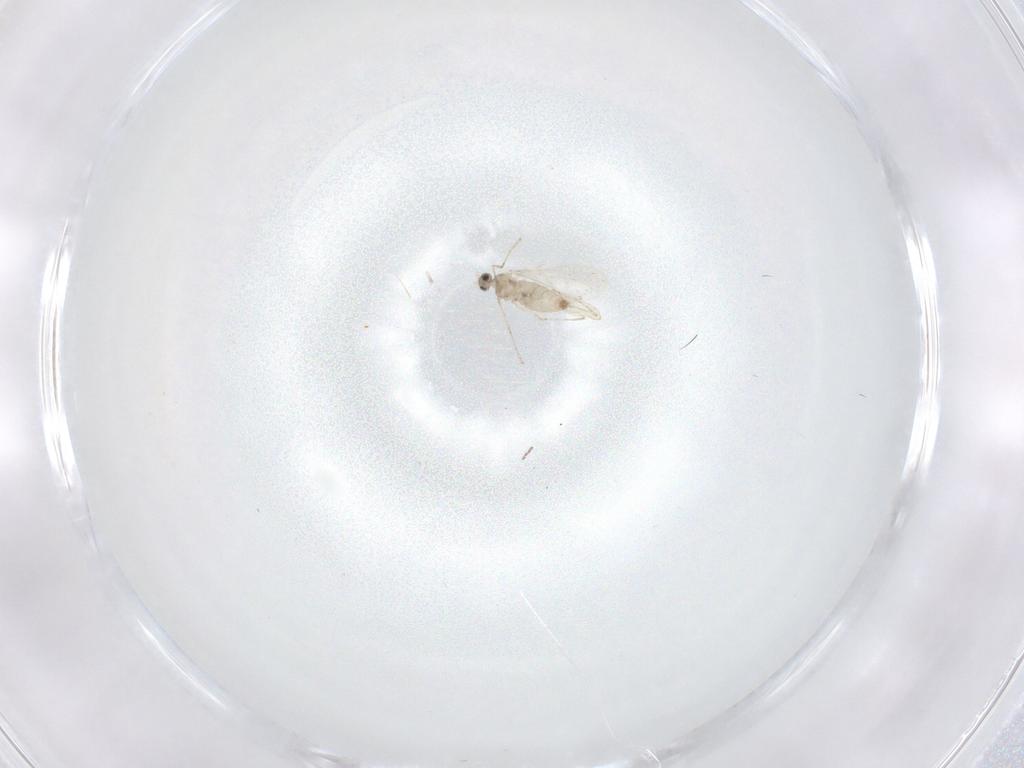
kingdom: Animalia
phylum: Arthropoda
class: Insecta
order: Diptera
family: Cecidomyiidae
